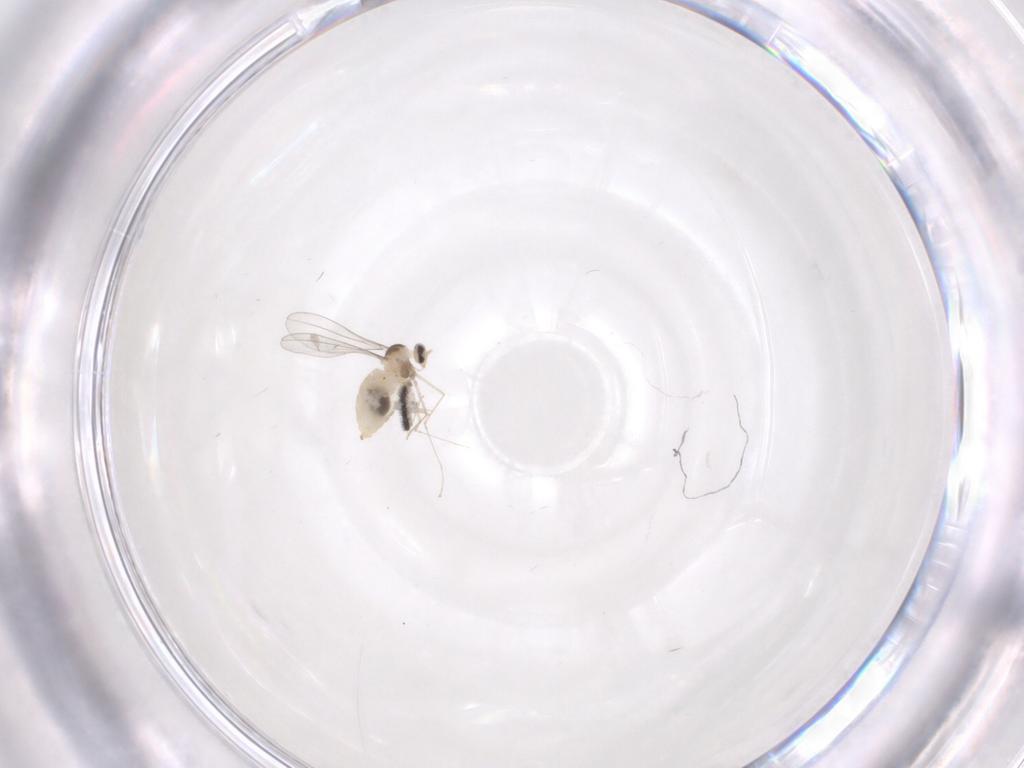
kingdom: Animalia
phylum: Arthropoda
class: Insecta
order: Diptera
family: Cecidomyiidae
